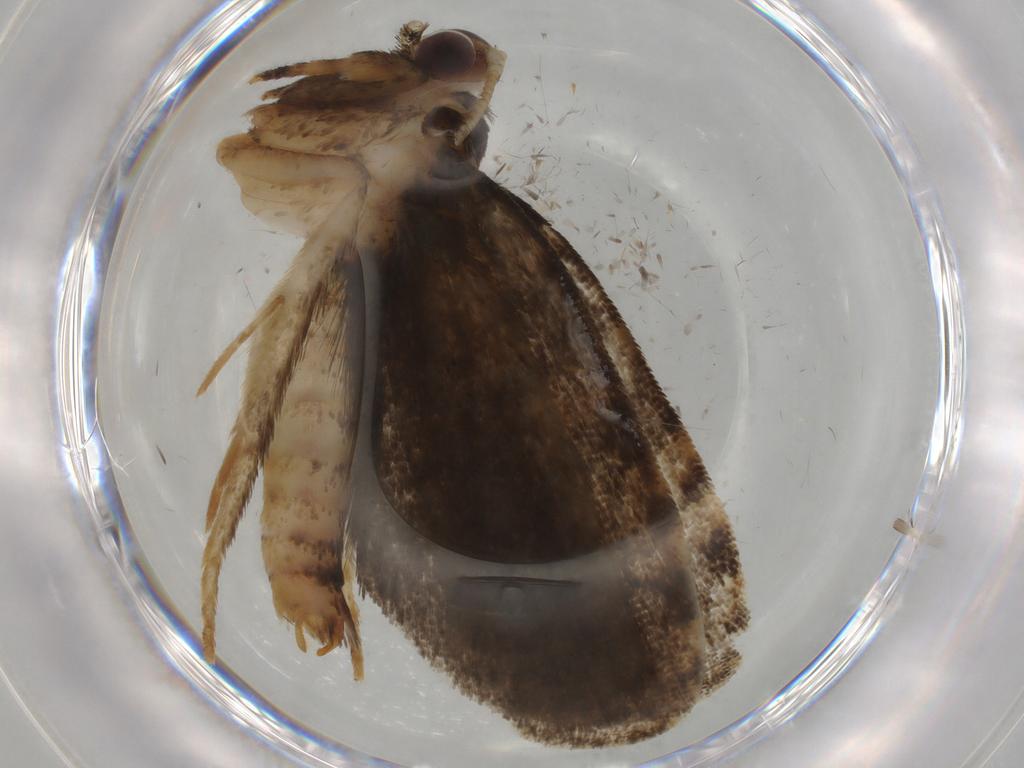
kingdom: Animalia
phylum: Arthropoda
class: Insecta
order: Lepidoptera
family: Tineidae
